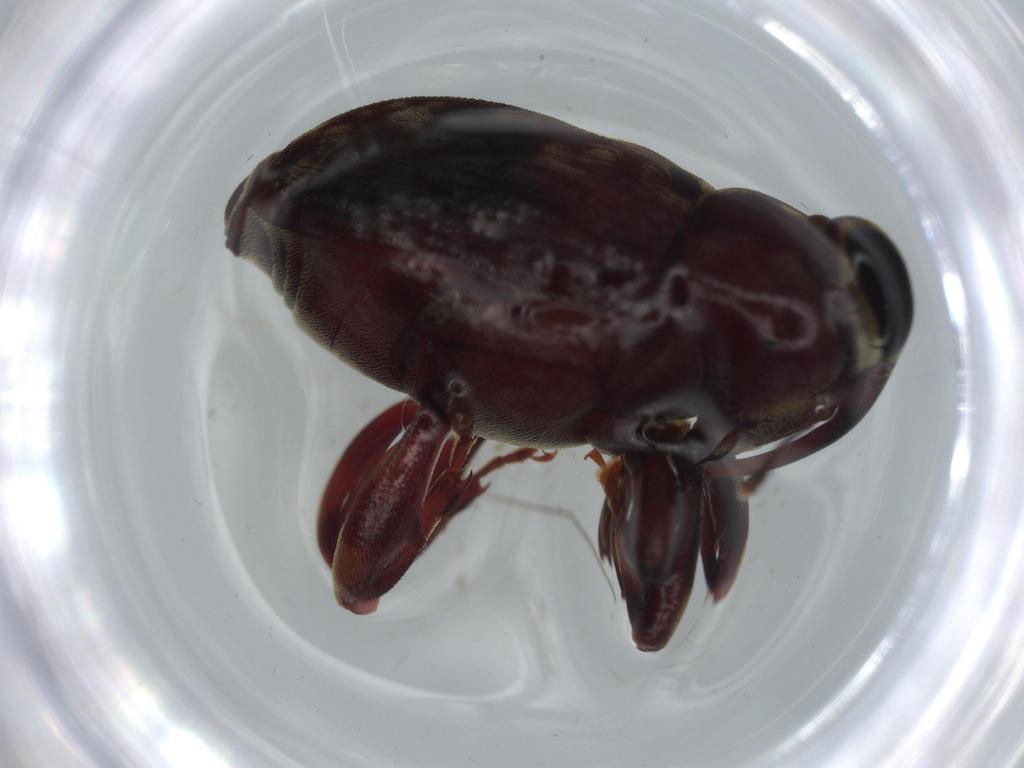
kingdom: Animalia
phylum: Arthropoda
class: Insecta
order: Coleoptera
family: Curculionidae
